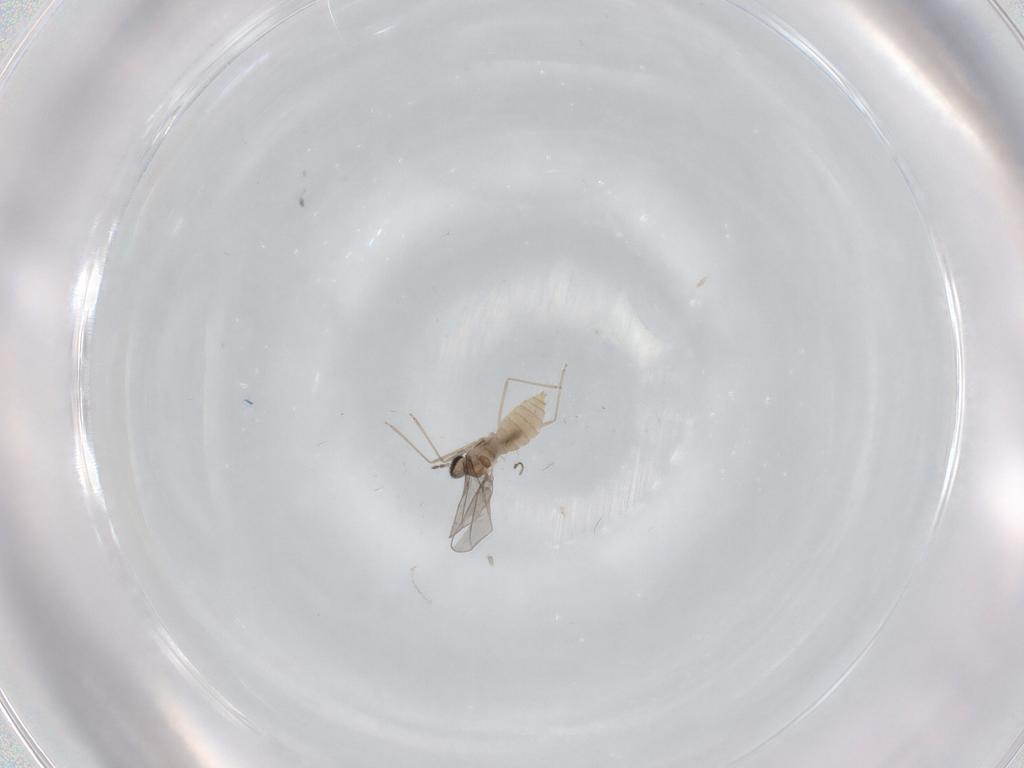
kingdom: Animalia
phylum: Arthropoda
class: Insecta
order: Diptera
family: Cecidomyiidae
